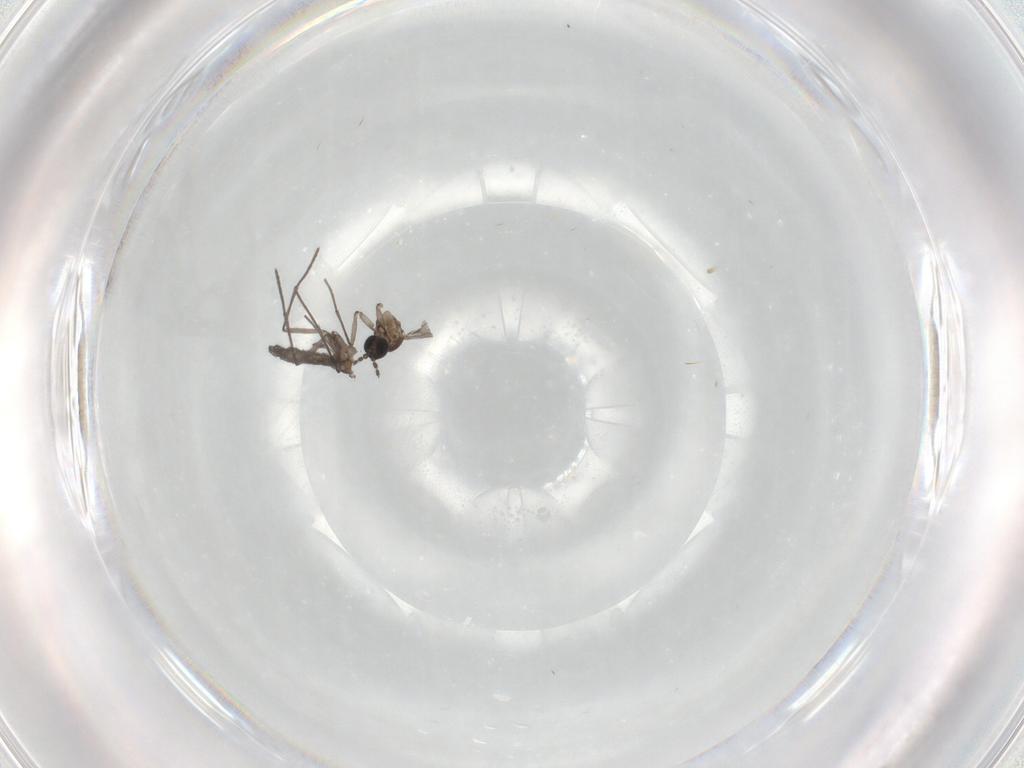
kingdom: Animalia
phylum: Arthropoda
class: Insecta
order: Diptera
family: Sciaridae
